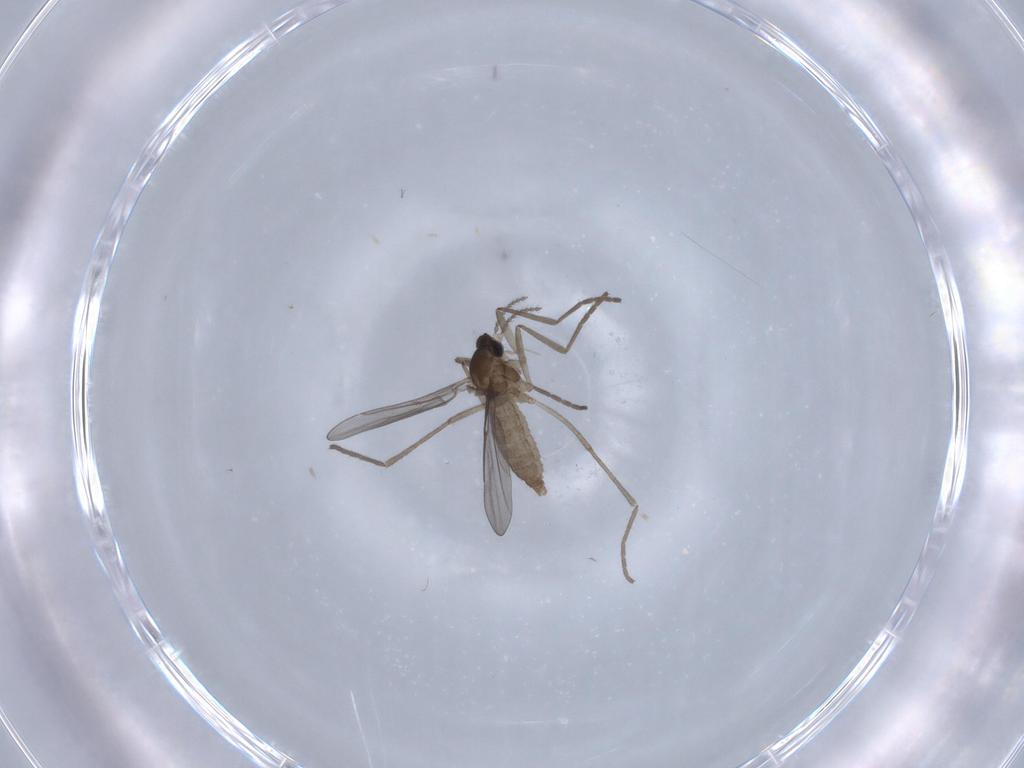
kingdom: Animalia
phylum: Arthropoda
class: Insecta
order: Diptera
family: Cecidomyiidae
